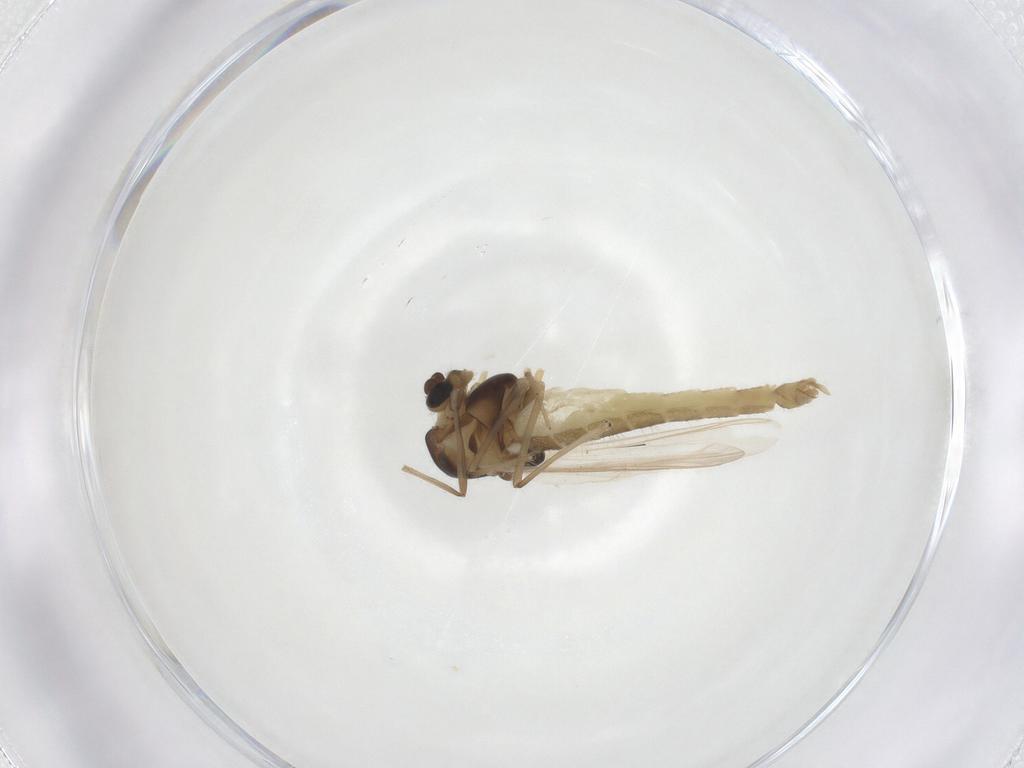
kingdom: Animalia
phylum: Arthropoda
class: Insecta
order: Diptera
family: Chironomidae
